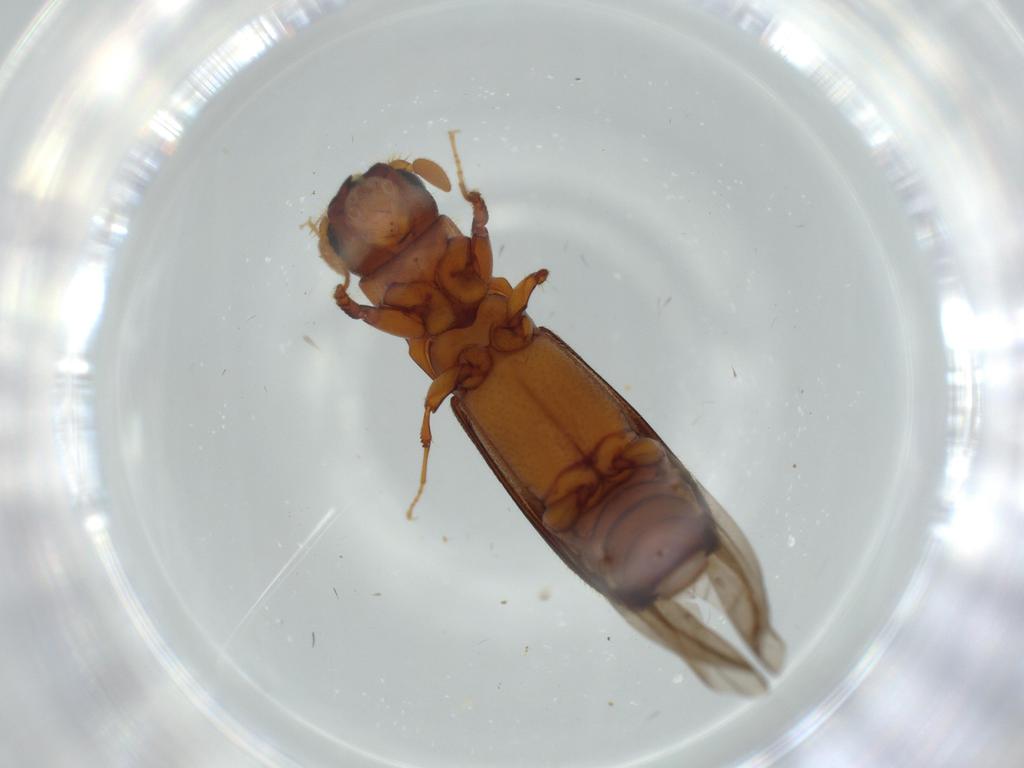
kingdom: Animalia
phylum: Arthropoda
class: Insecta
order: Coleoptera
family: Curculionidae
